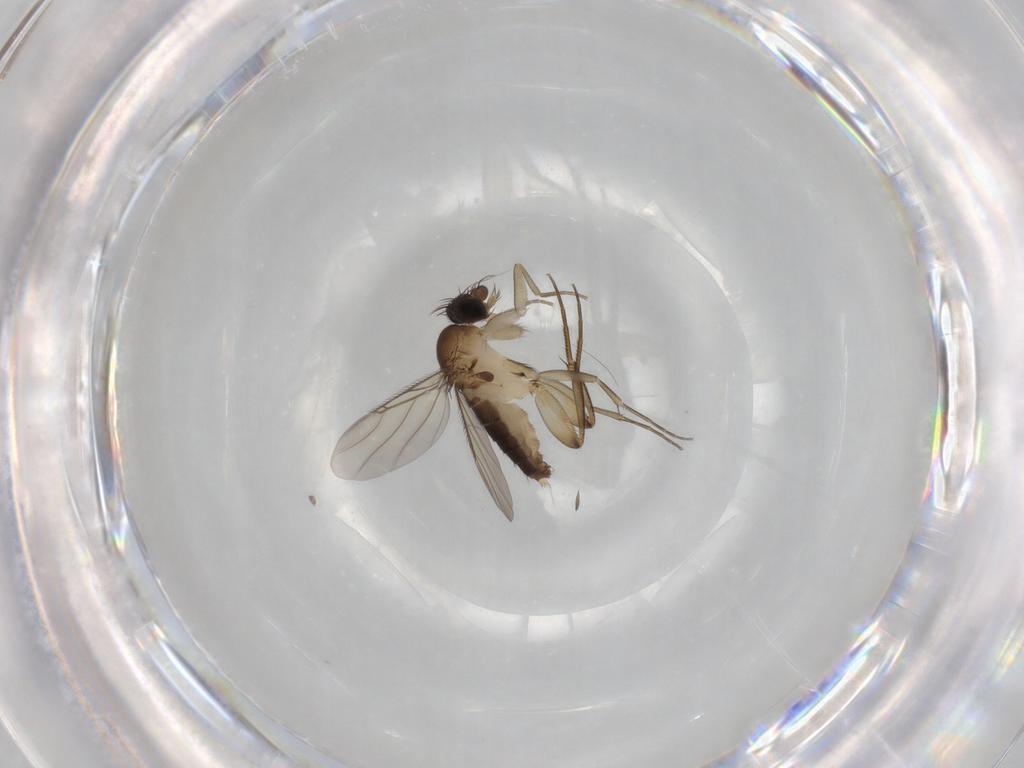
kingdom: Animalia
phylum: Arthropoda
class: Insecta
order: Diptera
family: Phoridae
